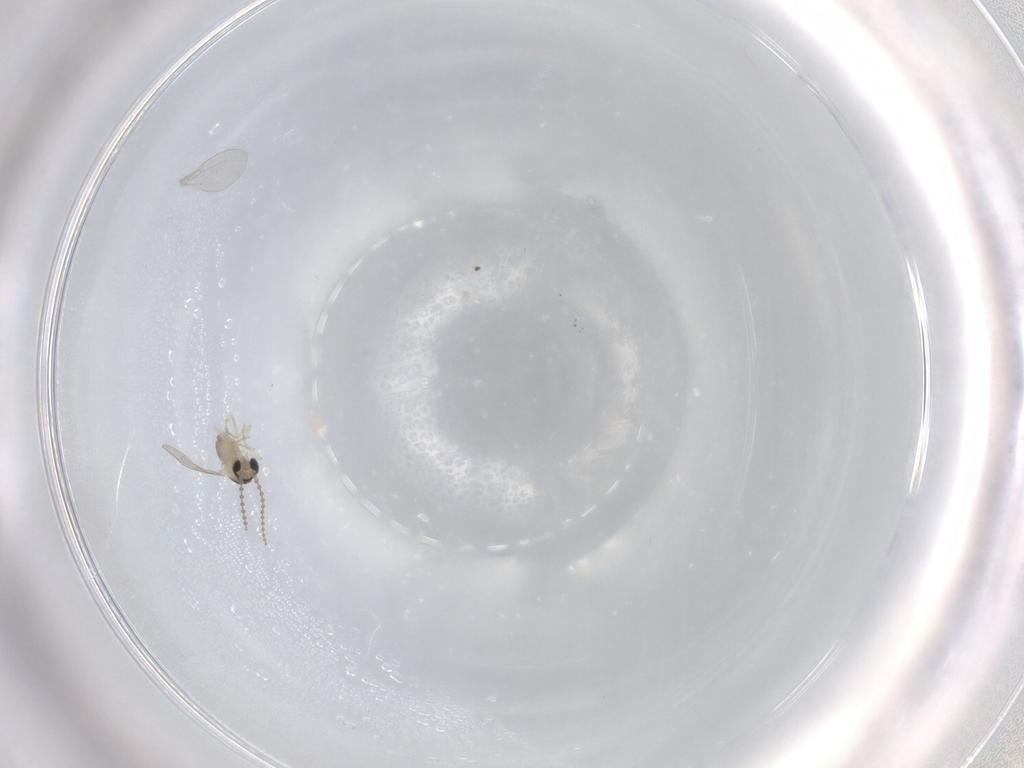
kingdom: Animalia
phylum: Arthropoda
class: Insecta
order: Diptera
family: Cecidomyiidae
